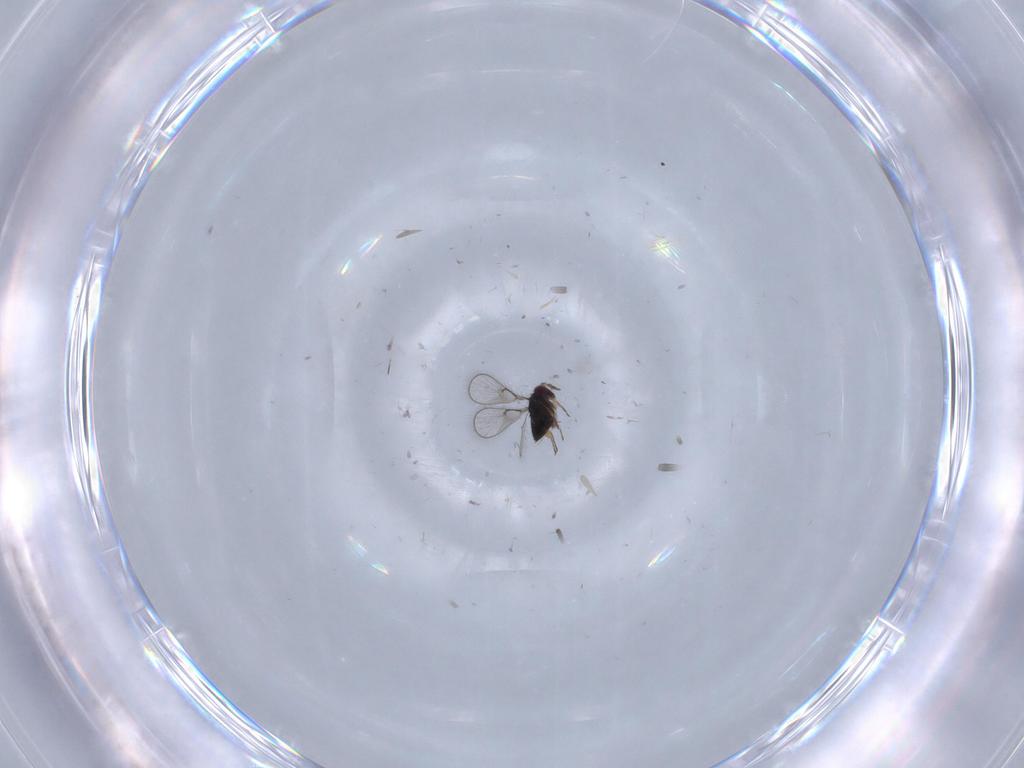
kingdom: Animalia
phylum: Arthropoda
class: Insecta
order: Hymenoptera
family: Trichogrammatidae
